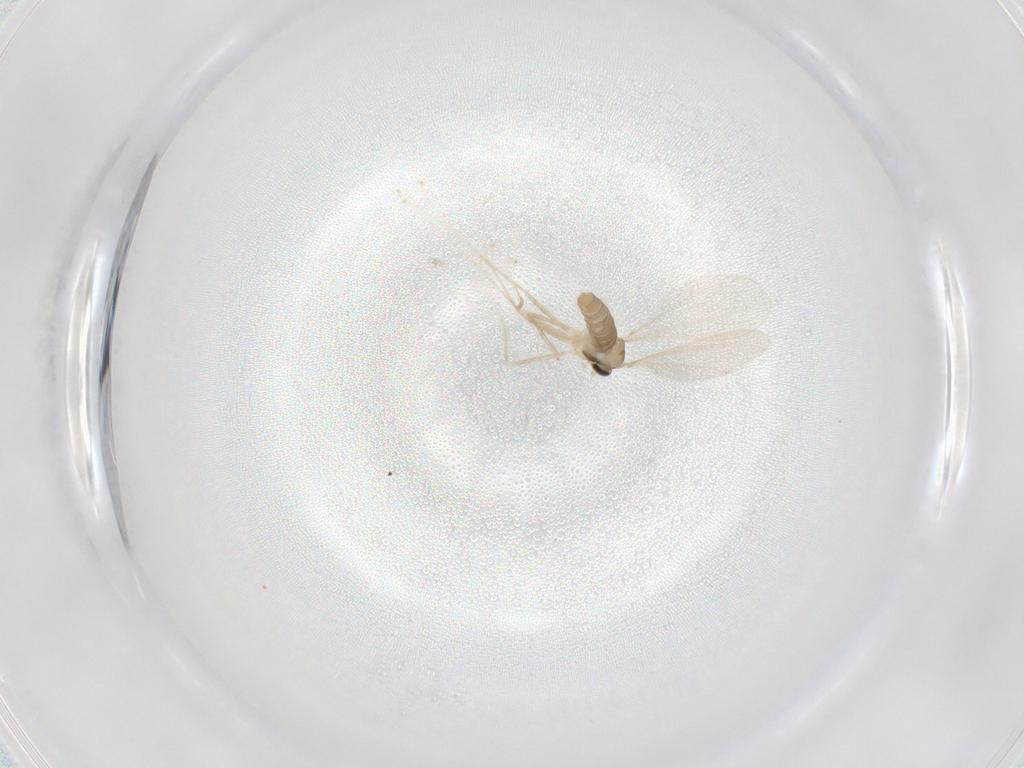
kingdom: Animalia
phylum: Arthropoda
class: Insecta
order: Diptera
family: Cecidomyiidae
